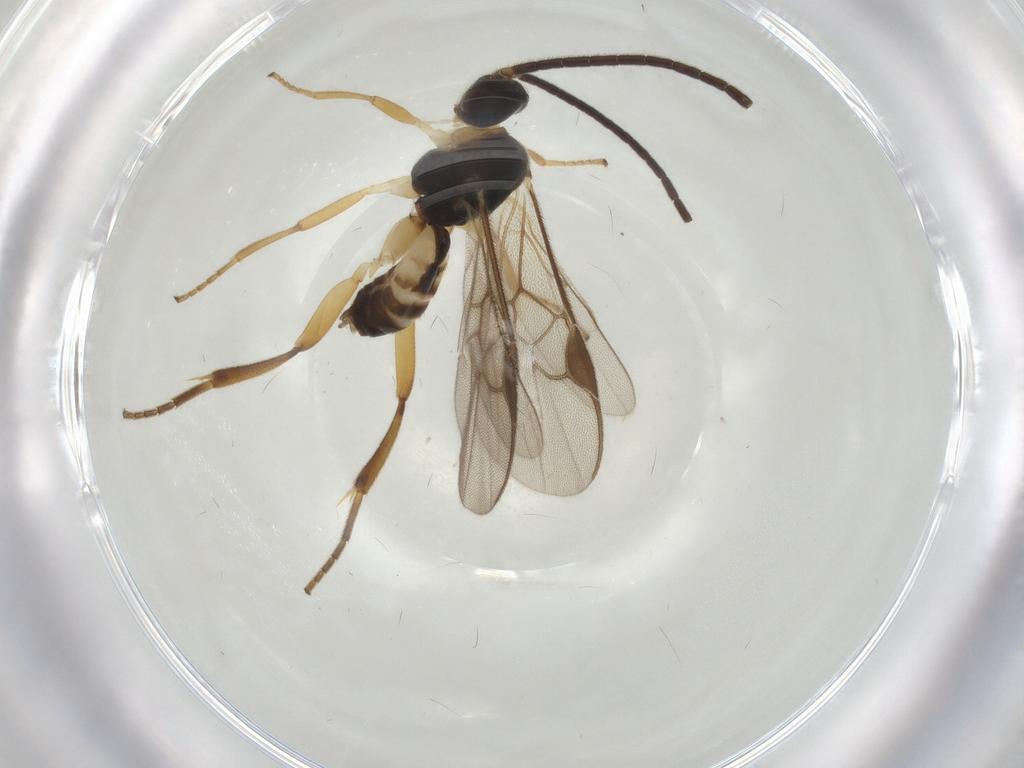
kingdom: Animalia
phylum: Arthropoda
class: Insecta
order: Hymenoptera
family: Braconidae
